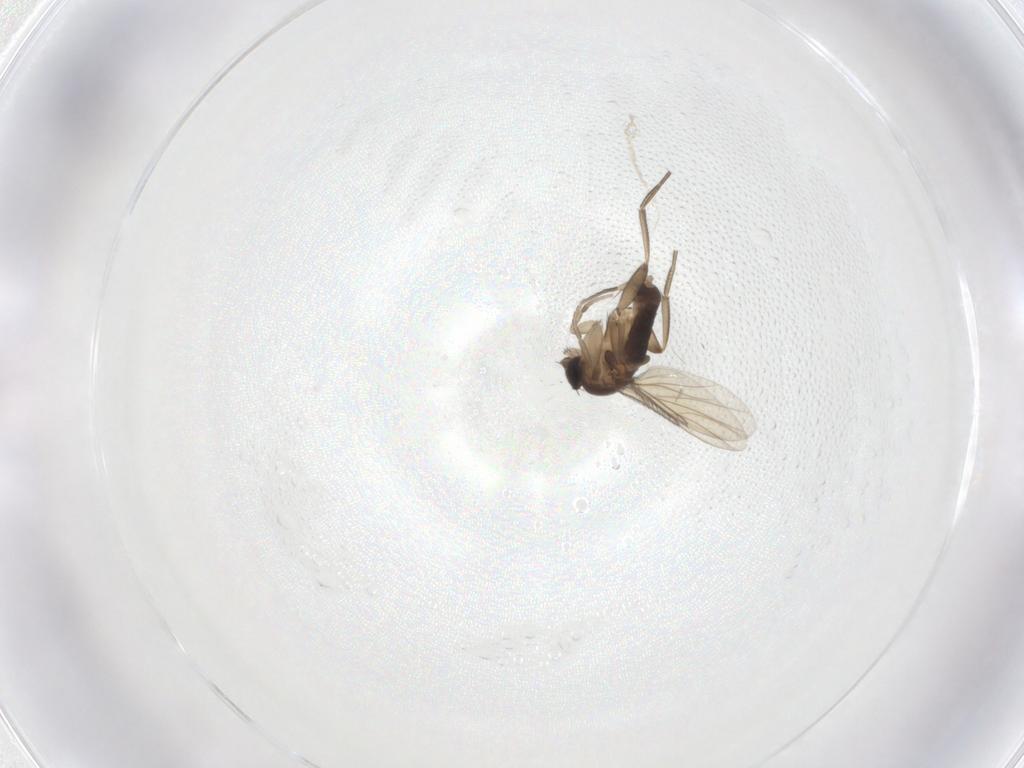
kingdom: Animalia
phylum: Arthropoda
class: Insecta
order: Diptera
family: Phoridae
